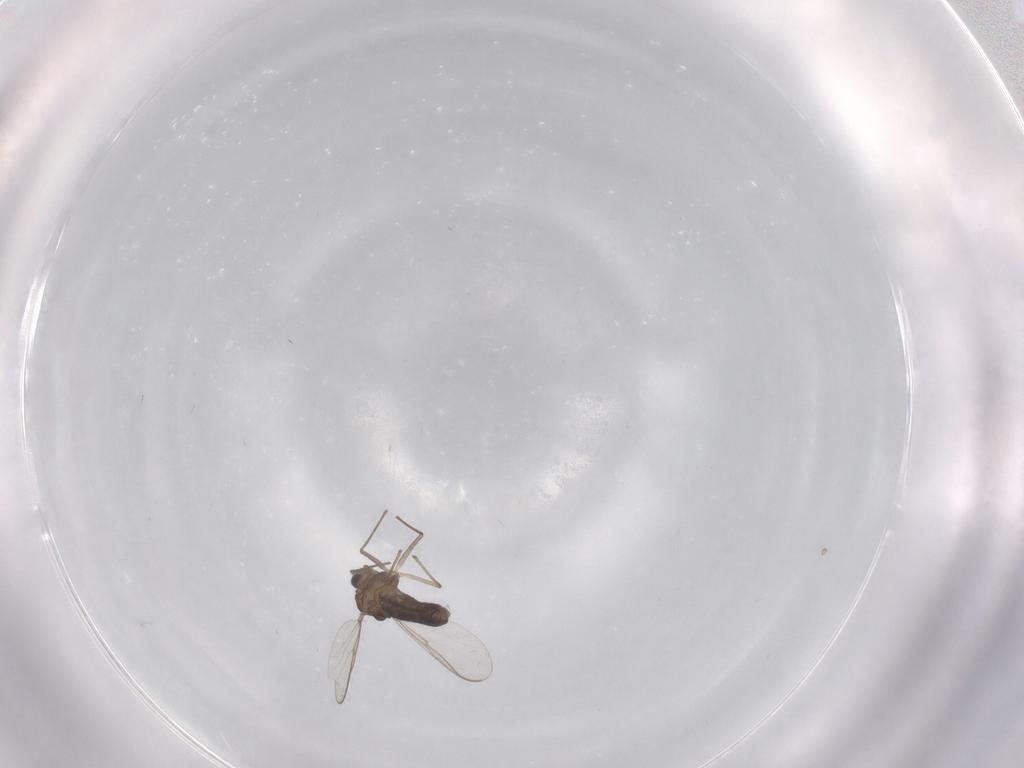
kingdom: Animalia
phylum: Arthropoda
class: Insecta
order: Diptera
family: Chironomidae
